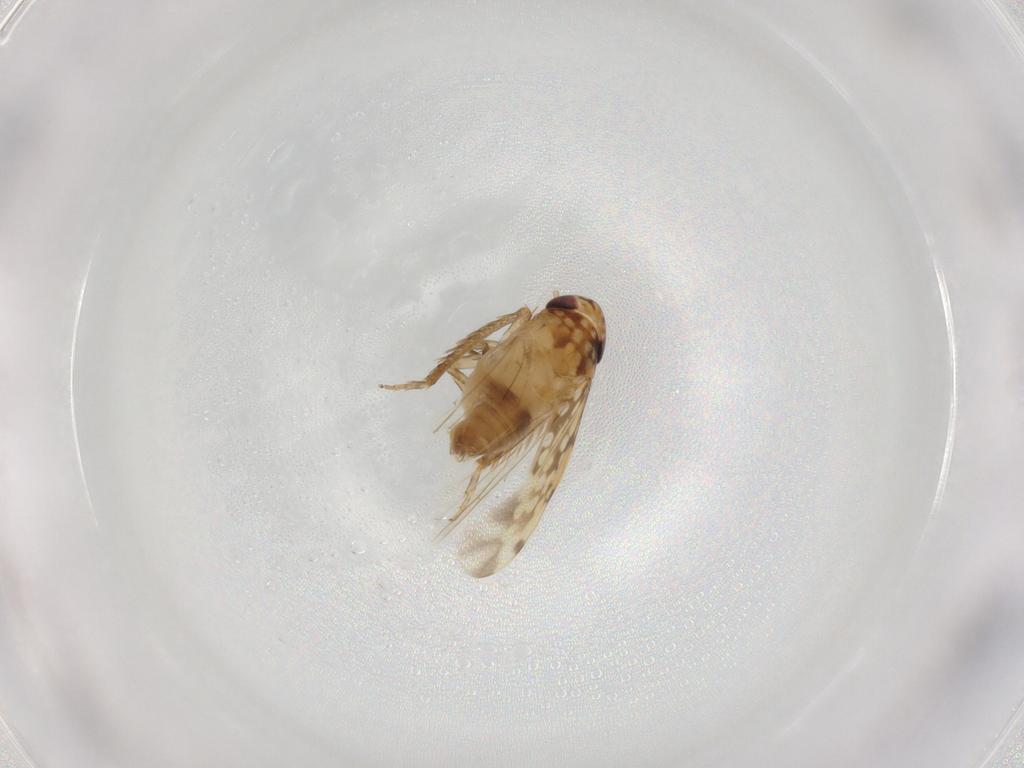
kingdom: Animalia
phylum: Arthropoda
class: Insecta
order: Hemiptera
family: Cicadellidae
